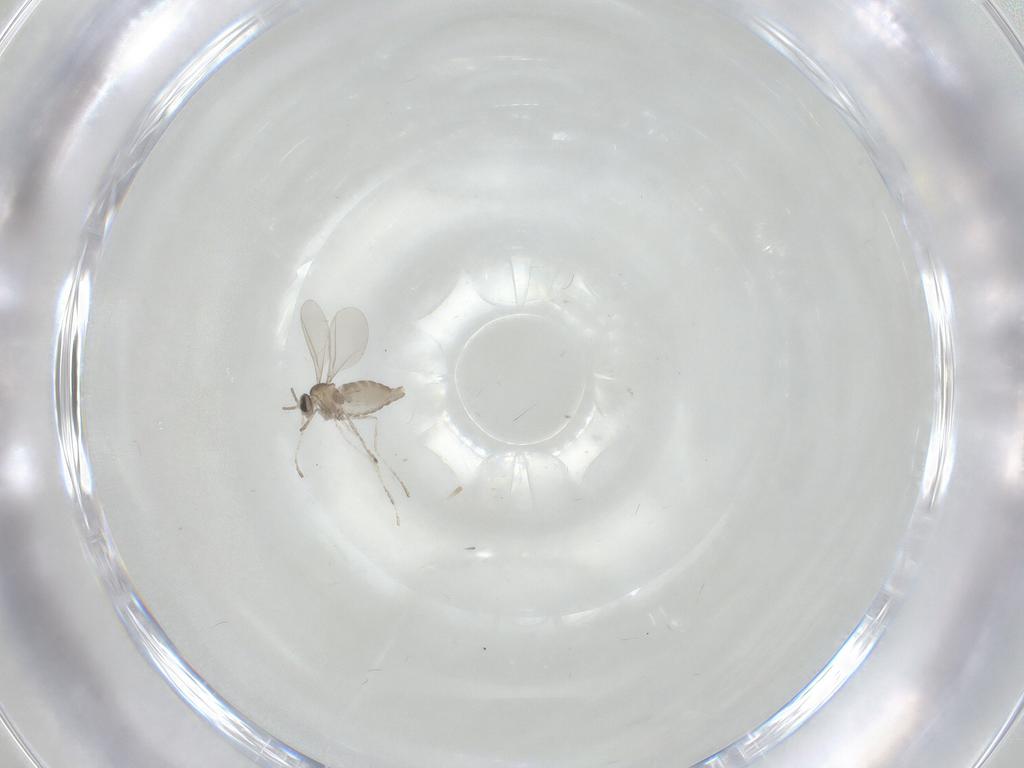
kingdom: Animalia
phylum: Arthropoda
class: Insecta
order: Diptera
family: Cecidomyiidae
